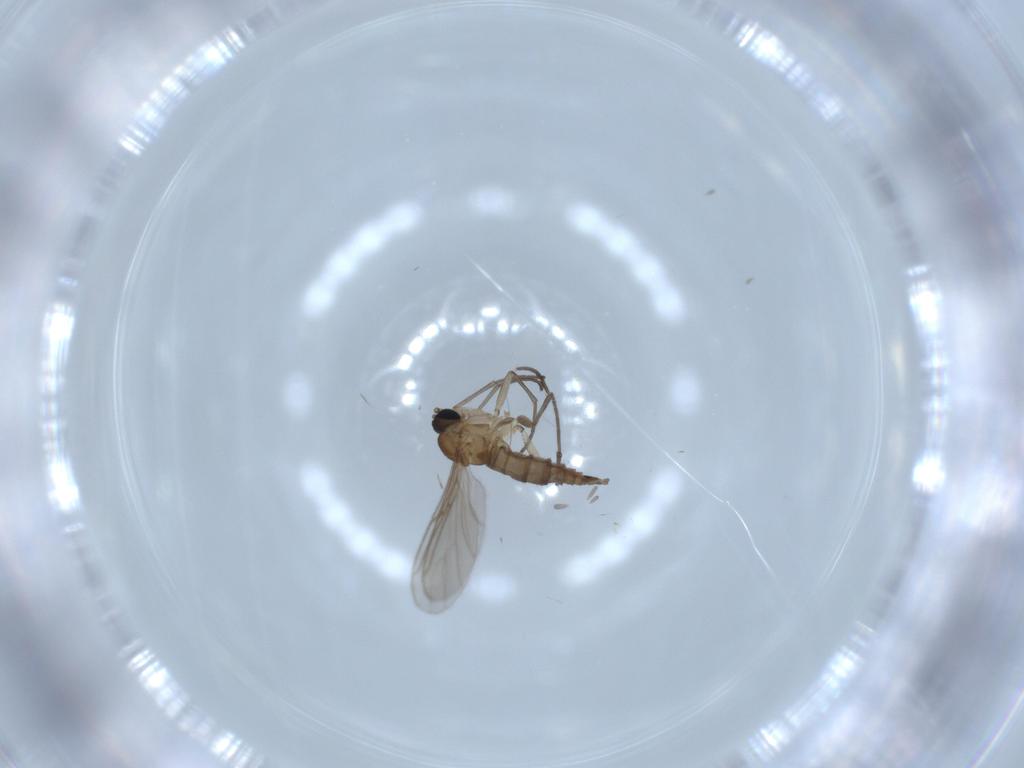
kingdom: Animalia
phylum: Arthropoda
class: Insecta
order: Diptera
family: Sciaridae
